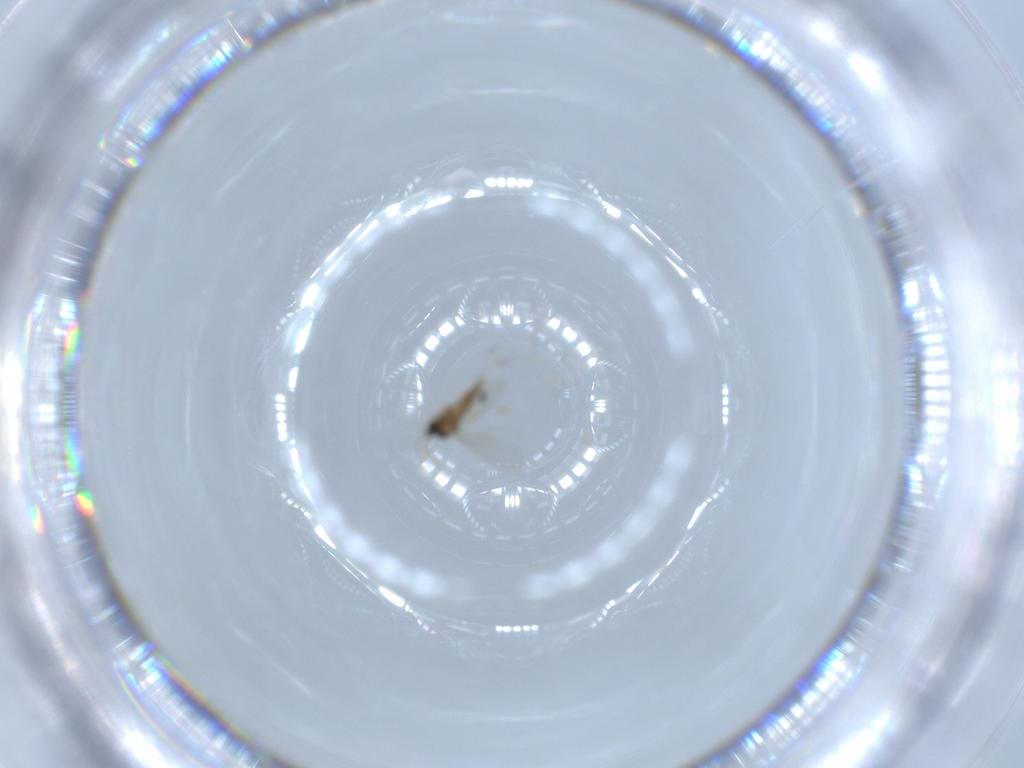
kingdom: Animalia
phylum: Arthropoda
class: Insecta
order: Diptera
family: Cecidomyiidae
